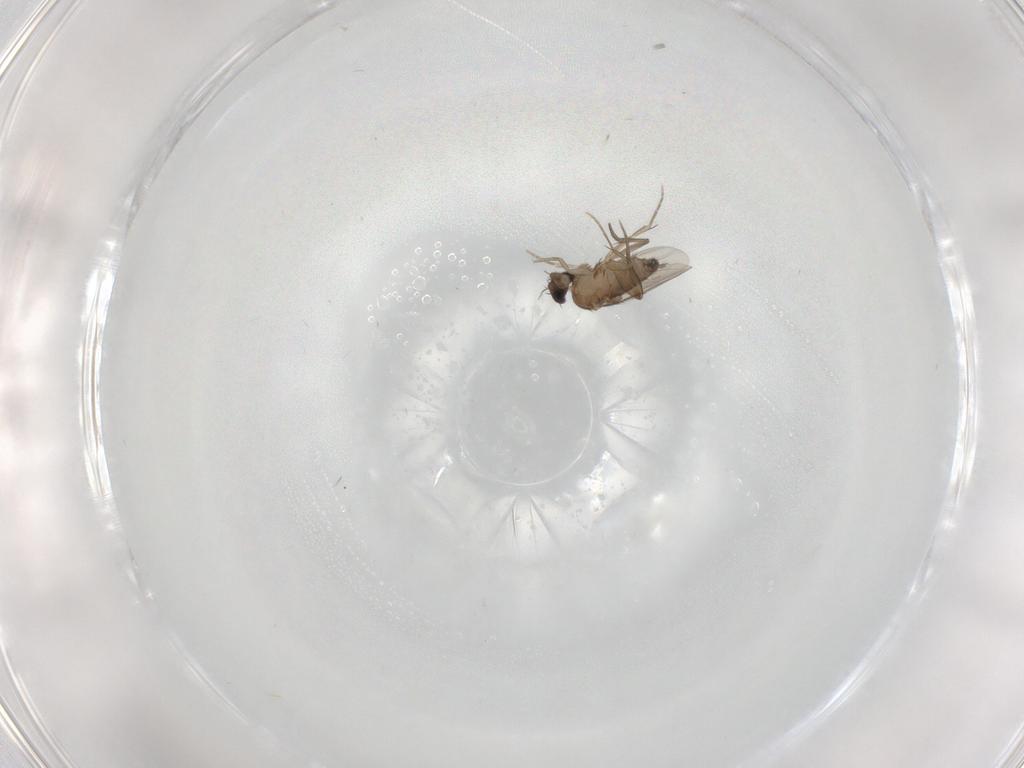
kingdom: Animalia
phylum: Arthropoda
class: Insecta
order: Diptera
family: Phoridae
